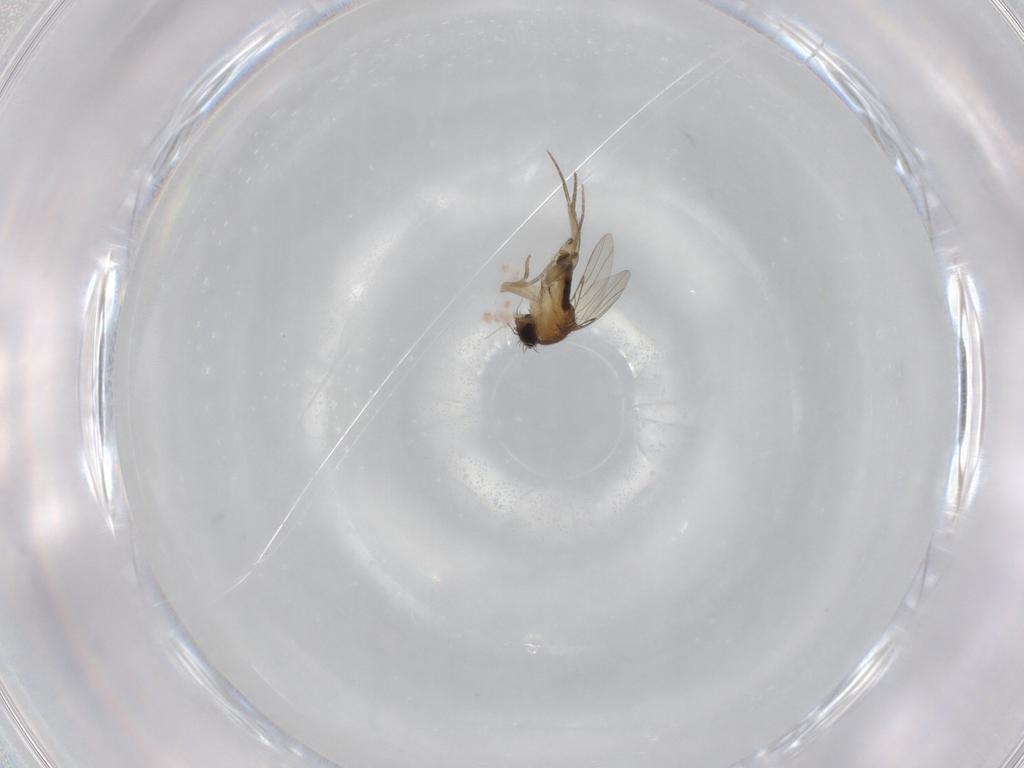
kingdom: Animalia
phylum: Arthropoda
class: Insecta
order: Diptera
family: Phoridae
